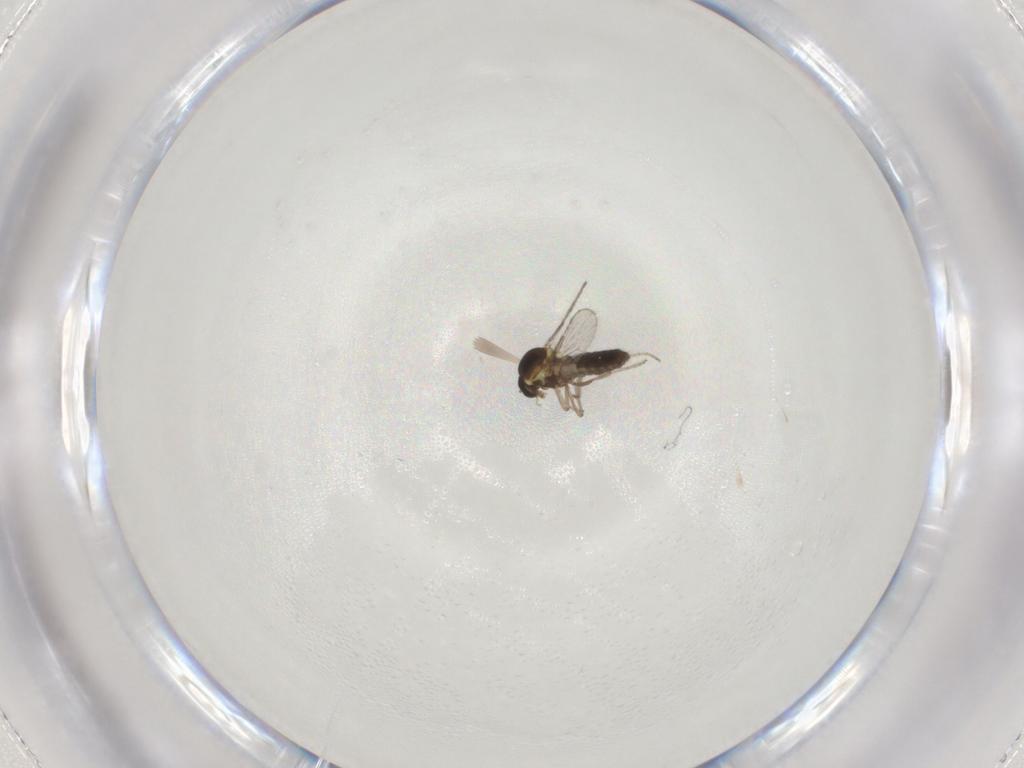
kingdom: Animalia
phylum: Arthropoda
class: Insecta
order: Diptera
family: Ceratopogonidae
